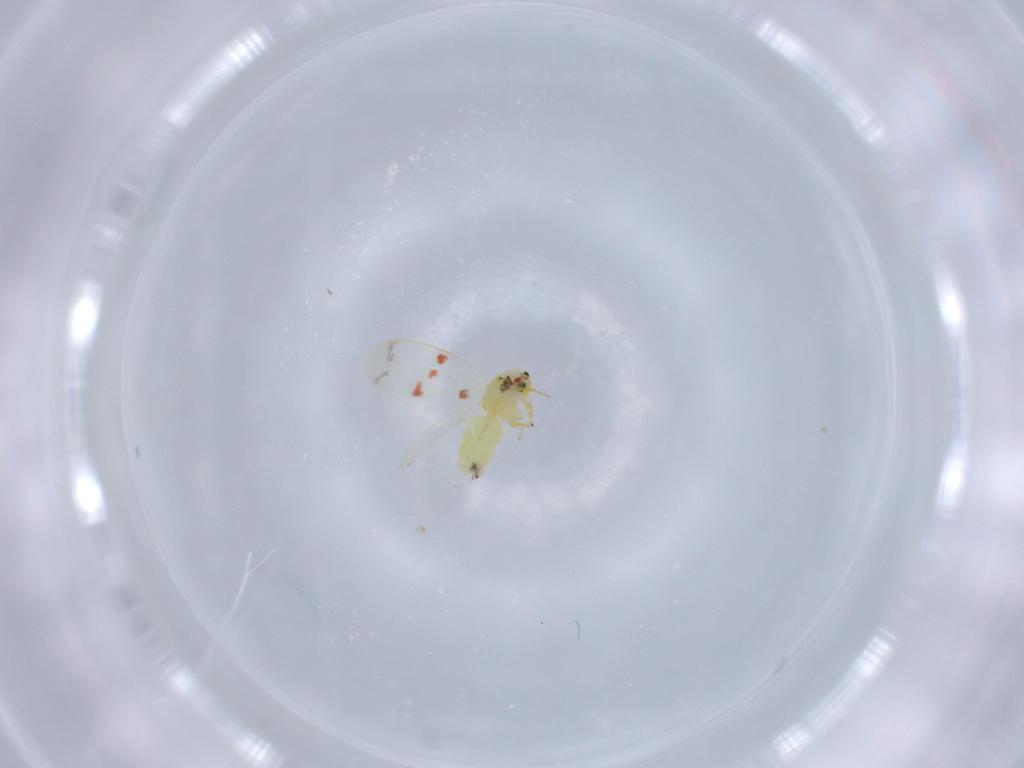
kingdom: Animalia
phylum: Arthropoda
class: Insecta
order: Hemiptera
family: Aleyrodidae
